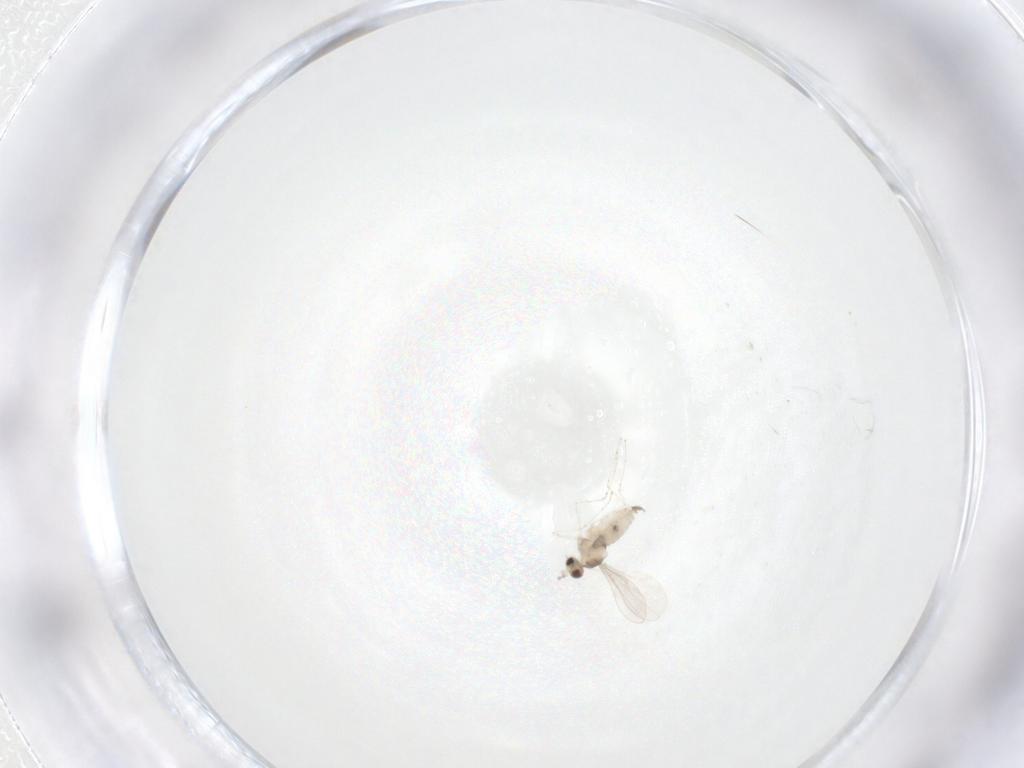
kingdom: Animalia
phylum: Arthropoda
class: Insecta
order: Diptera
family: Cecidomyiidae
